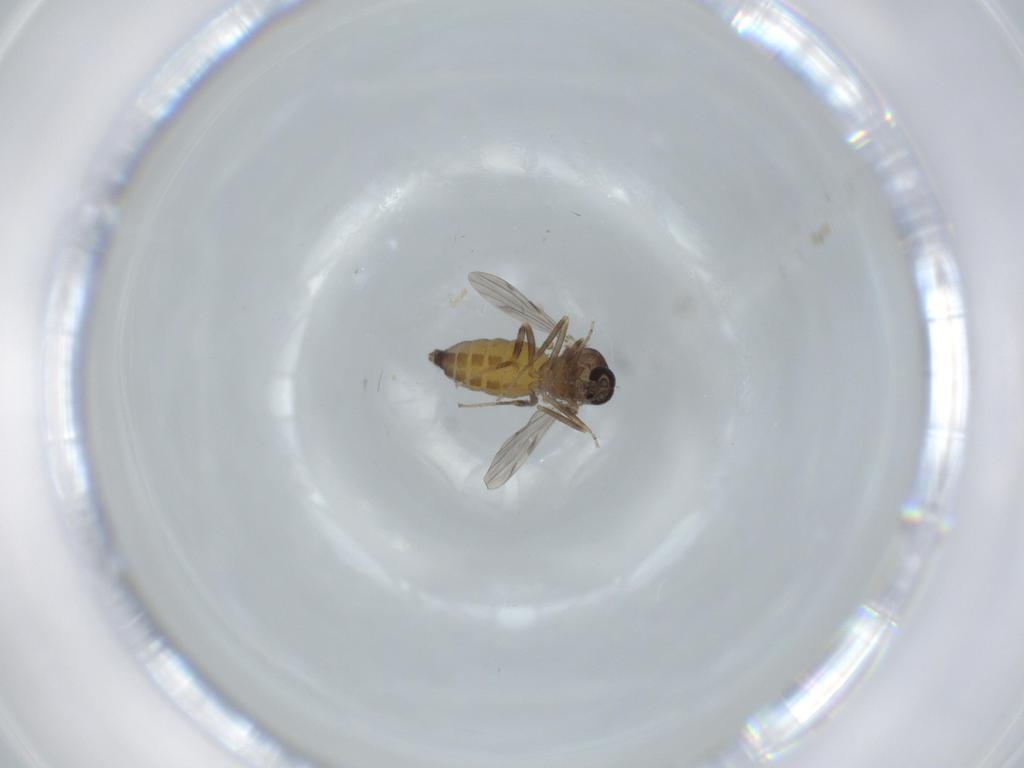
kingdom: Animalia
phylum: Arthropoda
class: Insecta
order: Diptera
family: Ceratopogonidae
